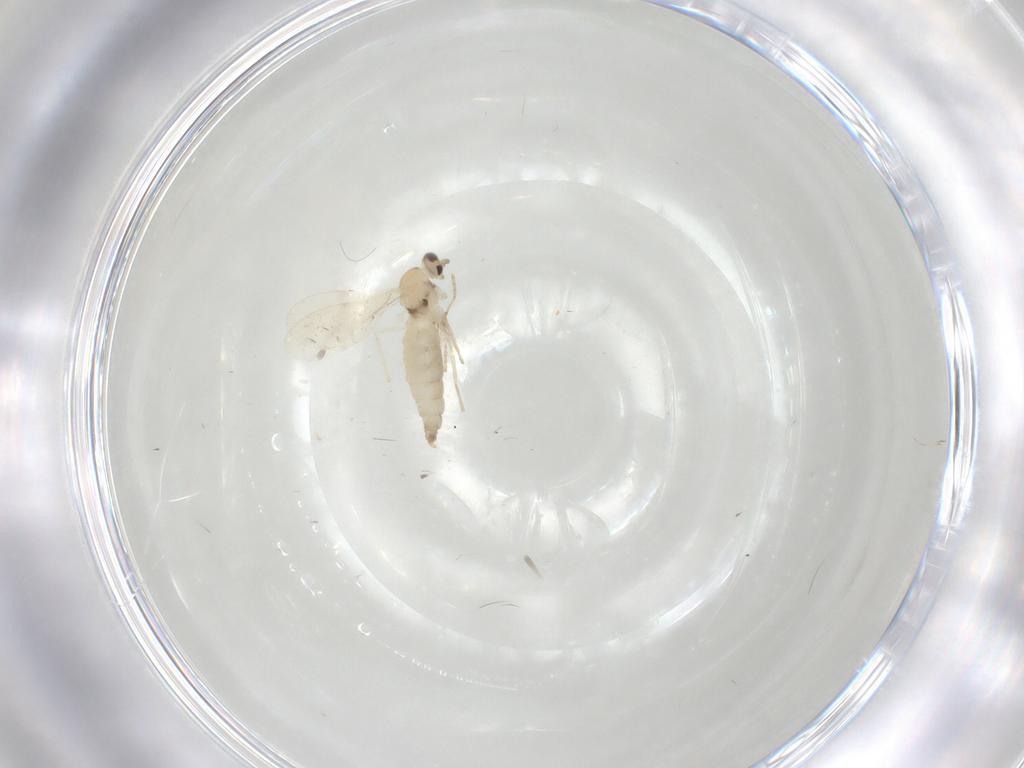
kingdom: Animalia
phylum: Arthropoda
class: Insecta
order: Diptera
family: Cecidomyiidae
